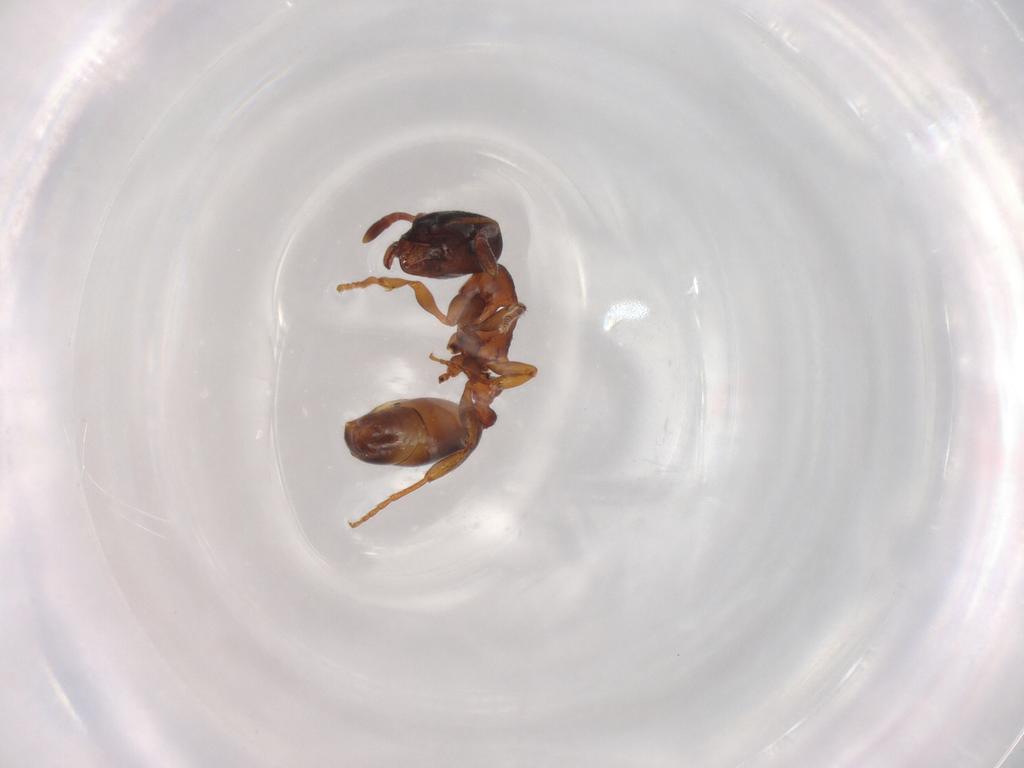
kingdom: Animalia
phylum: Arthropoda
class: Insecta
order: Hymenoptera
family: Formicidae
